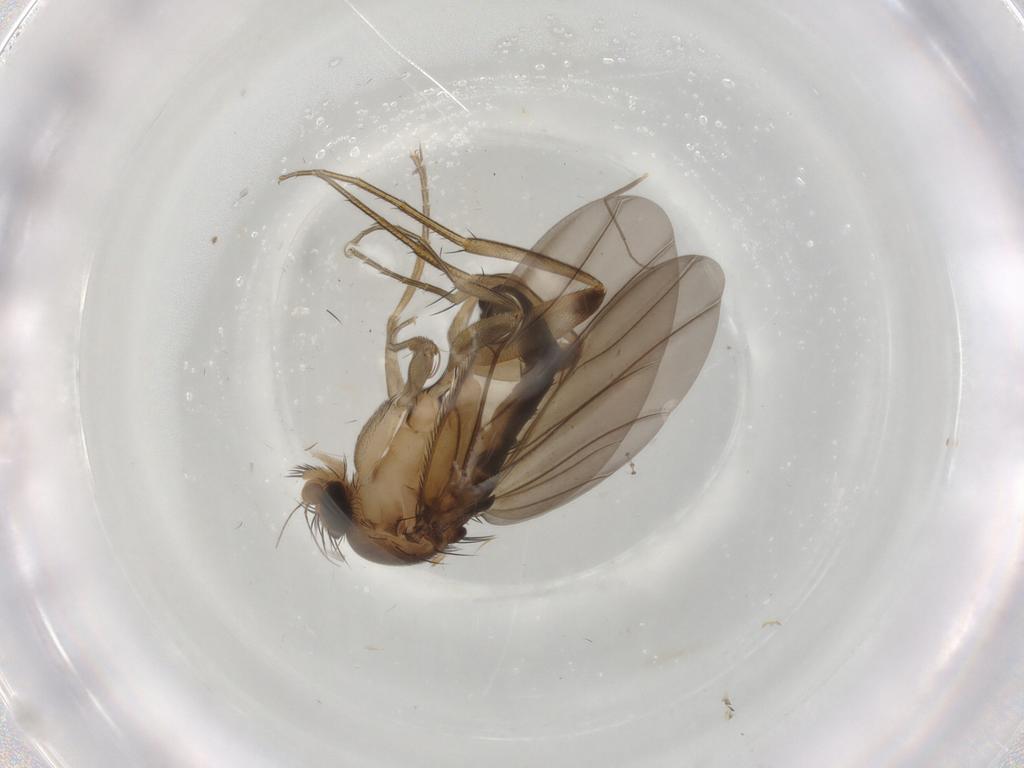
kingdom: Animalia
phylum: Arthropoda
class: Insecta
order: Diptera
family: Phoridae
